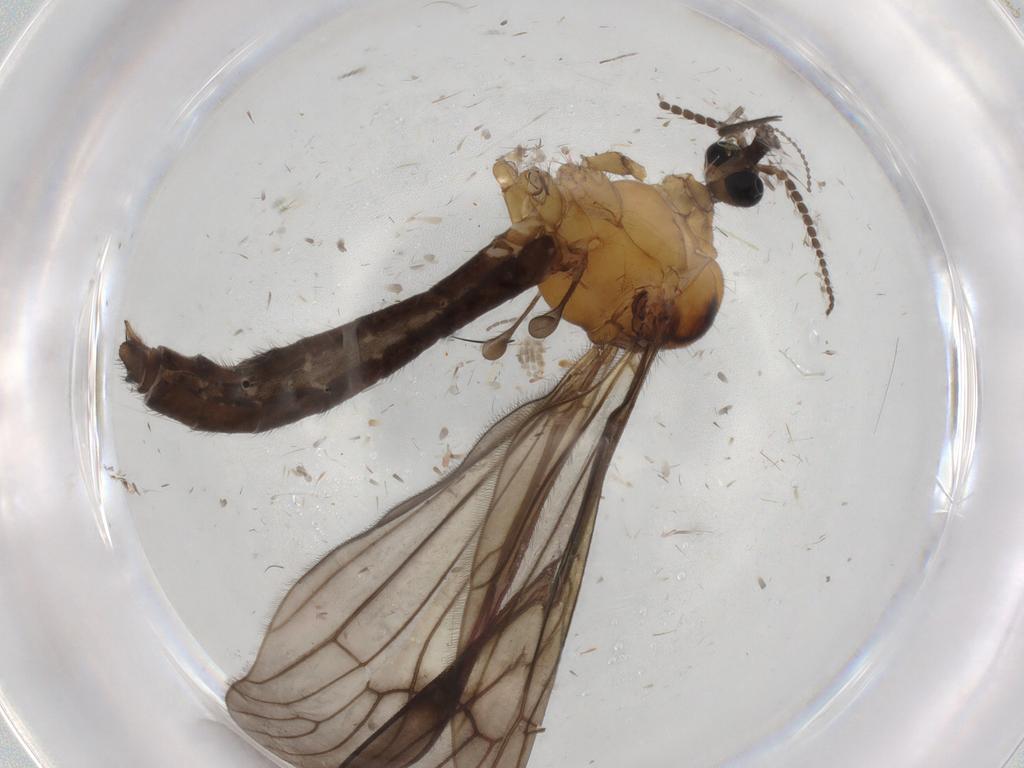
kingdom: Animalia
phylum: Arthropoda
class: Insecta
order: Diptera
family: Limoniidae
